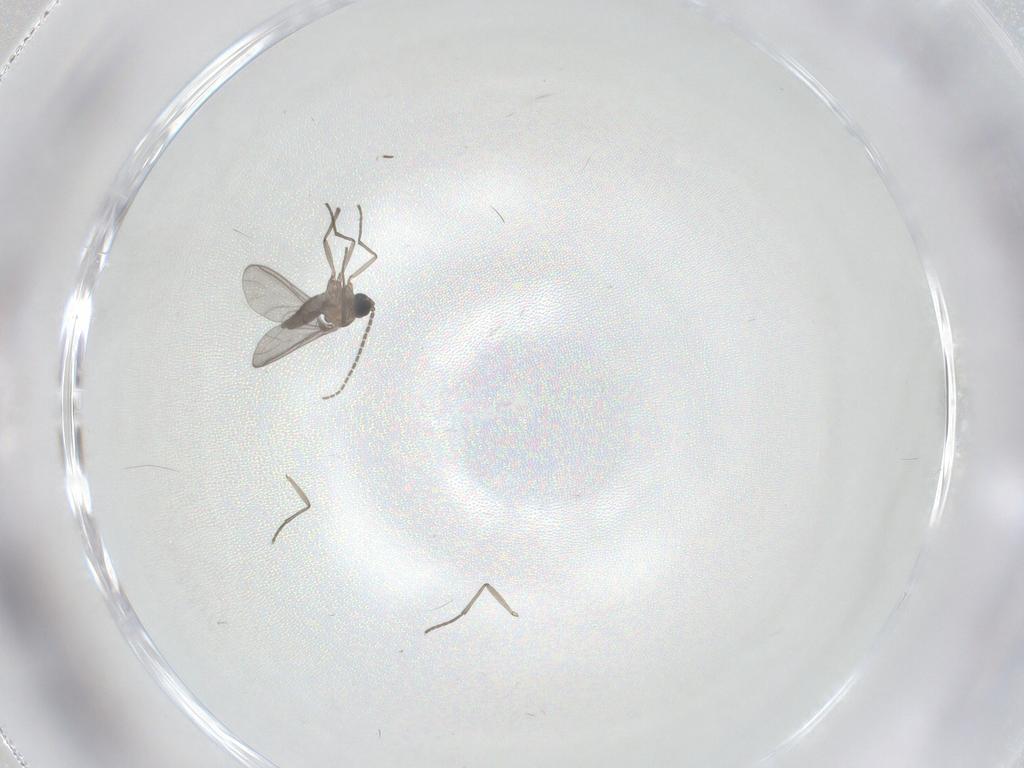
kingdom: Animalia
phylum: Arthropoda
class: Insecta
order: Diptera
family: Sciaridae
